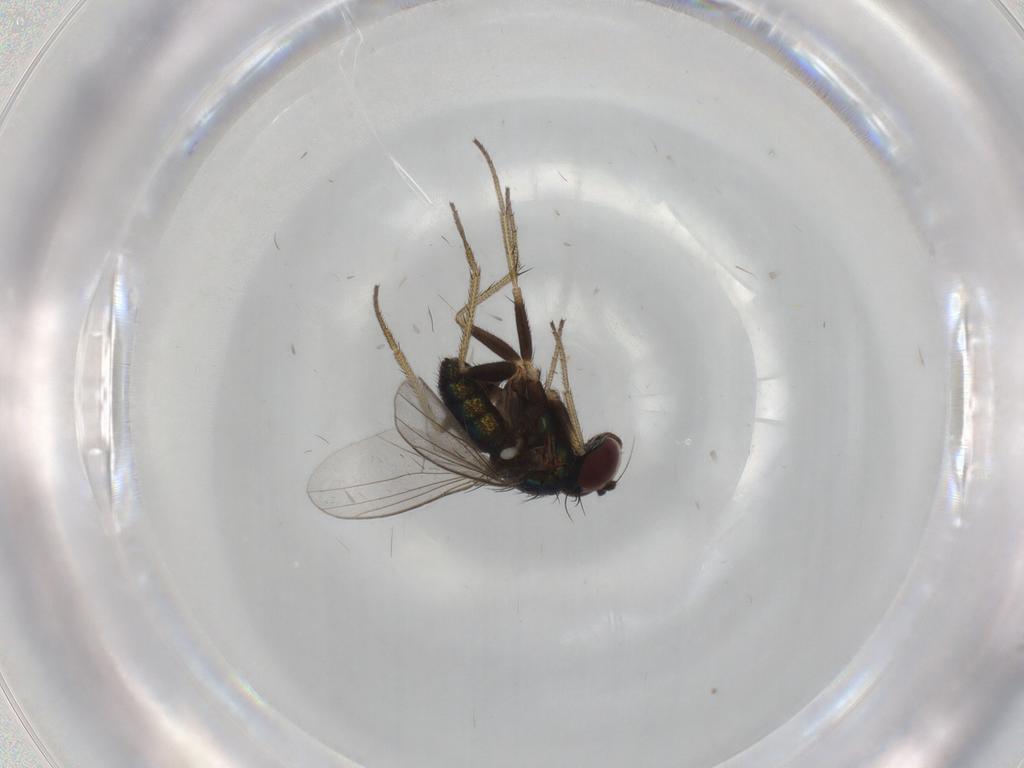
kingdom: Animalia
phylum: Arthropoda
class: Insecta
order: Diptera
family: Dolichopodidae
